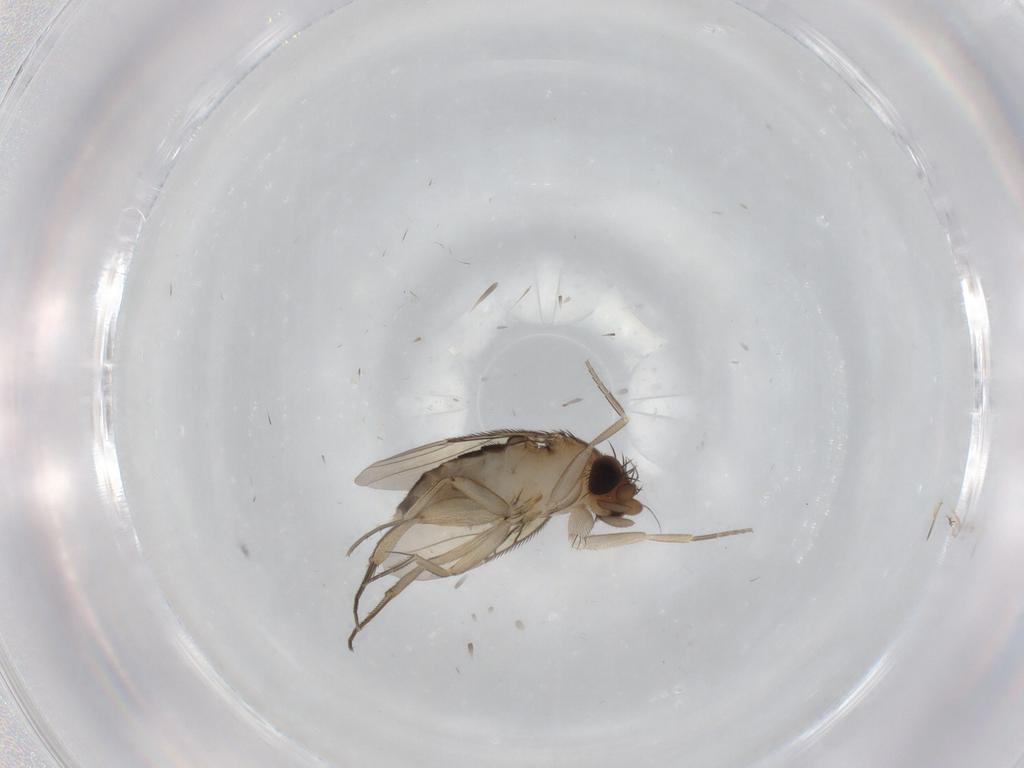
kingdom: Animalia
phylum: Arthropoda
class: Insecta
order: Diptera
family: Phoridae
